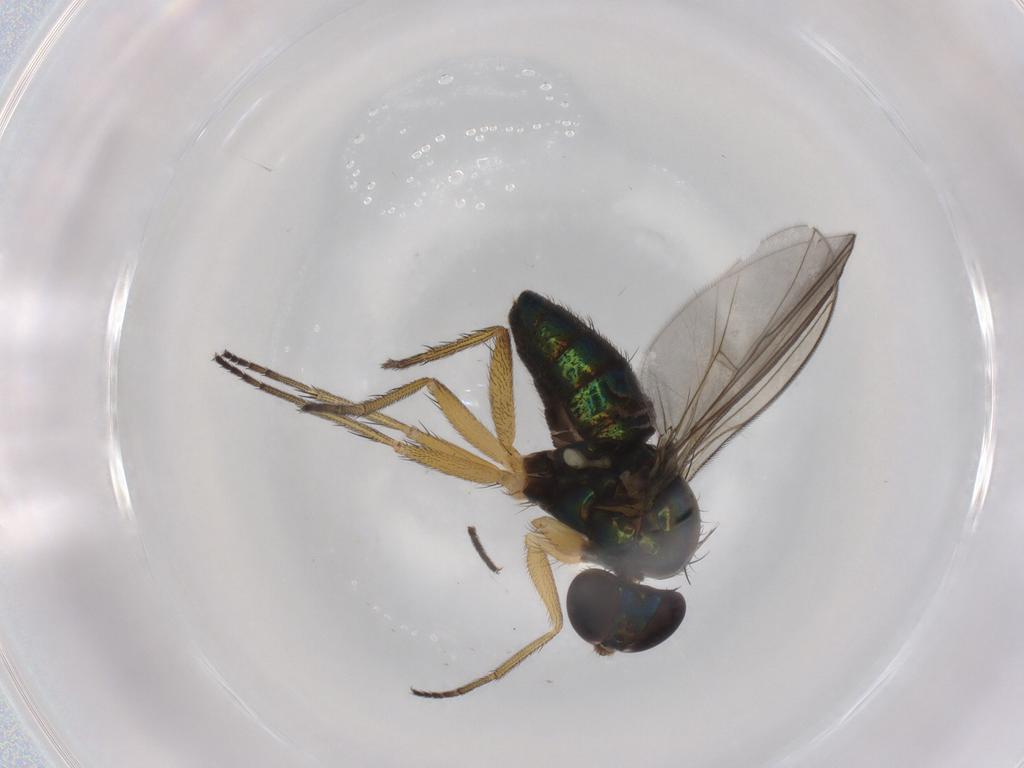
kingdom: Animalia
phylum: Arthropoda
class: Insecta
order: Diptera
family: Dolichopodidae
